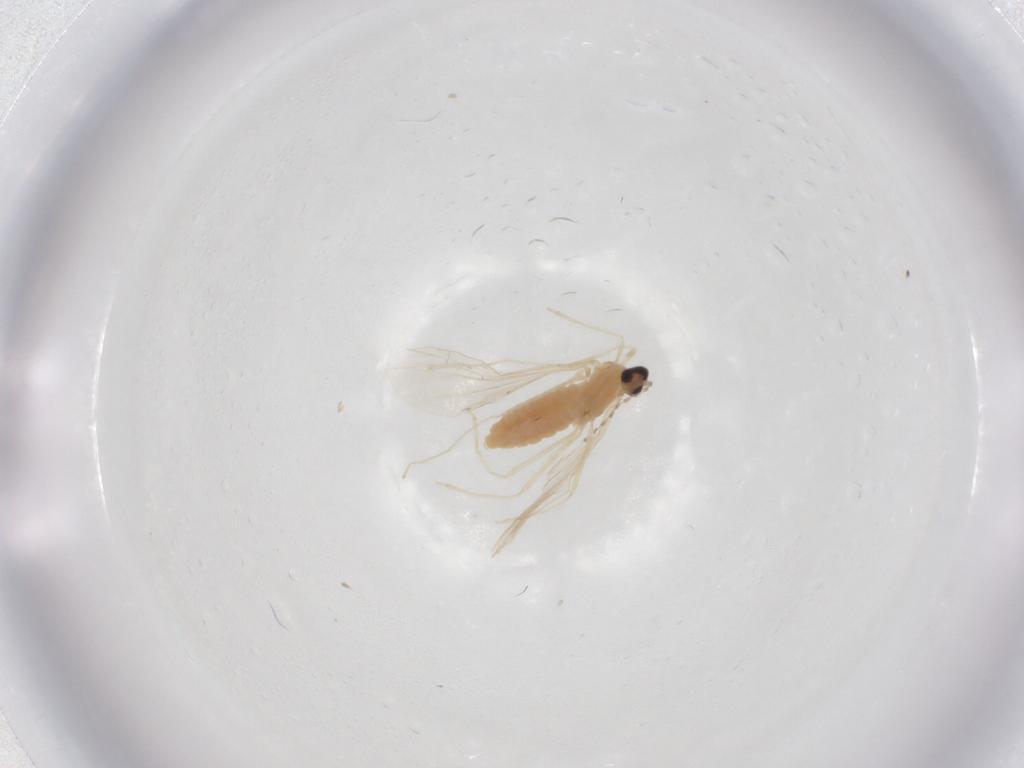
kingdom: Animalia
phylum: Arthropoda
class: Insecta
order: Diptera
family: Cecidomyiidae
